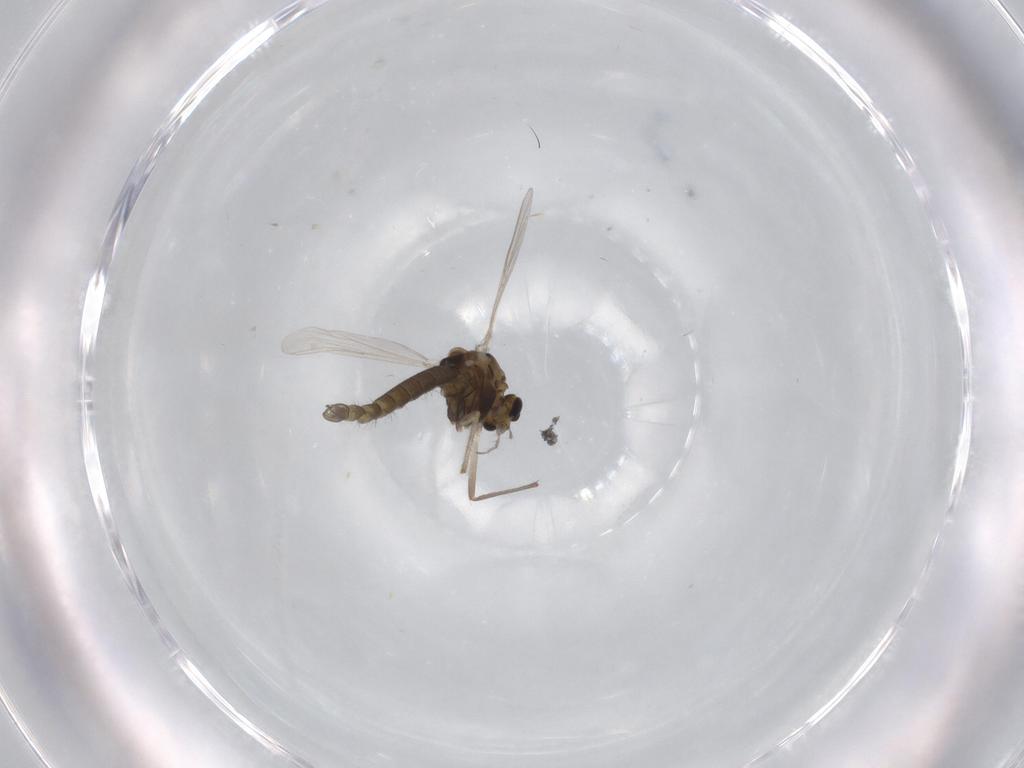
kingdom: Animalia
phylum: Arthropoda
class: Insecta
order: Diptera
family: Chironomidae
